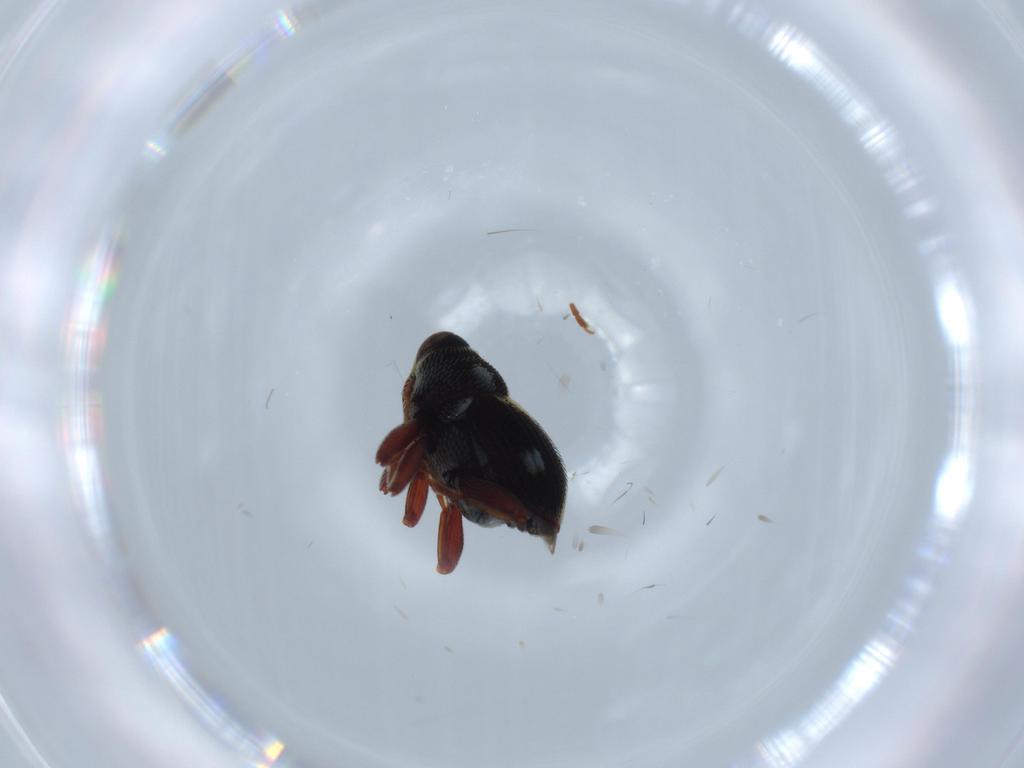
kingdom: Animalia
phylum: Arthropoda
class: Insecta
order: Coleoptera
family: Curculionidae
